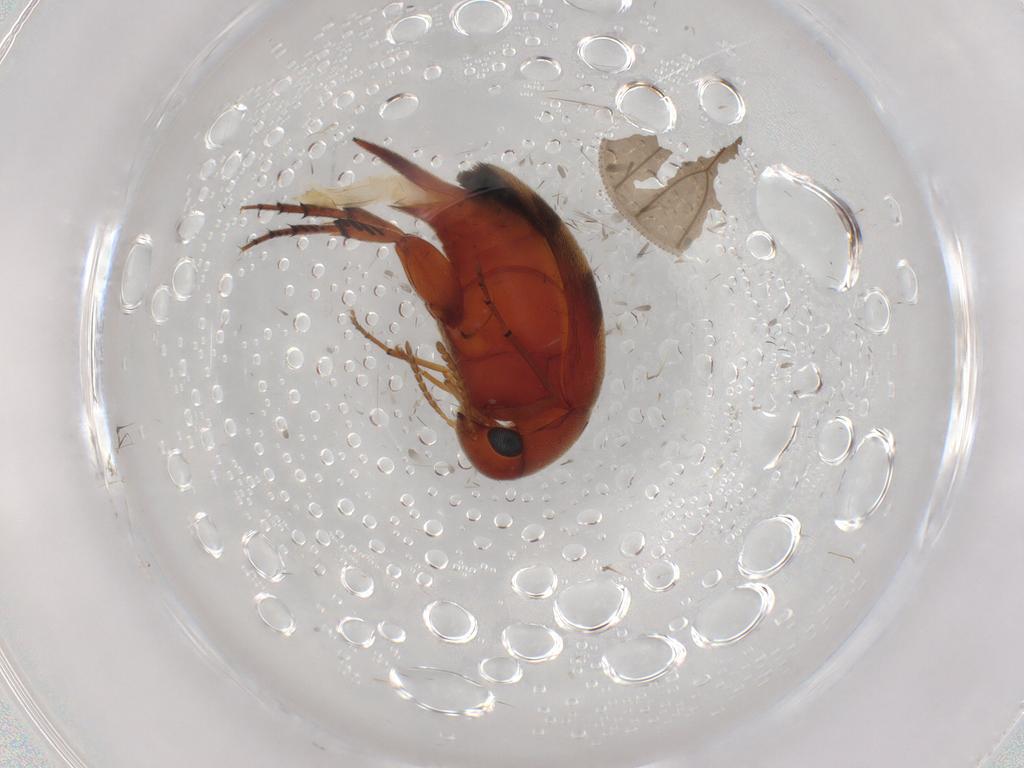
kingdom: Animalia
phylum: Arthropoda
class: Insecta
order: Coleoptera
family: Mordellidae
